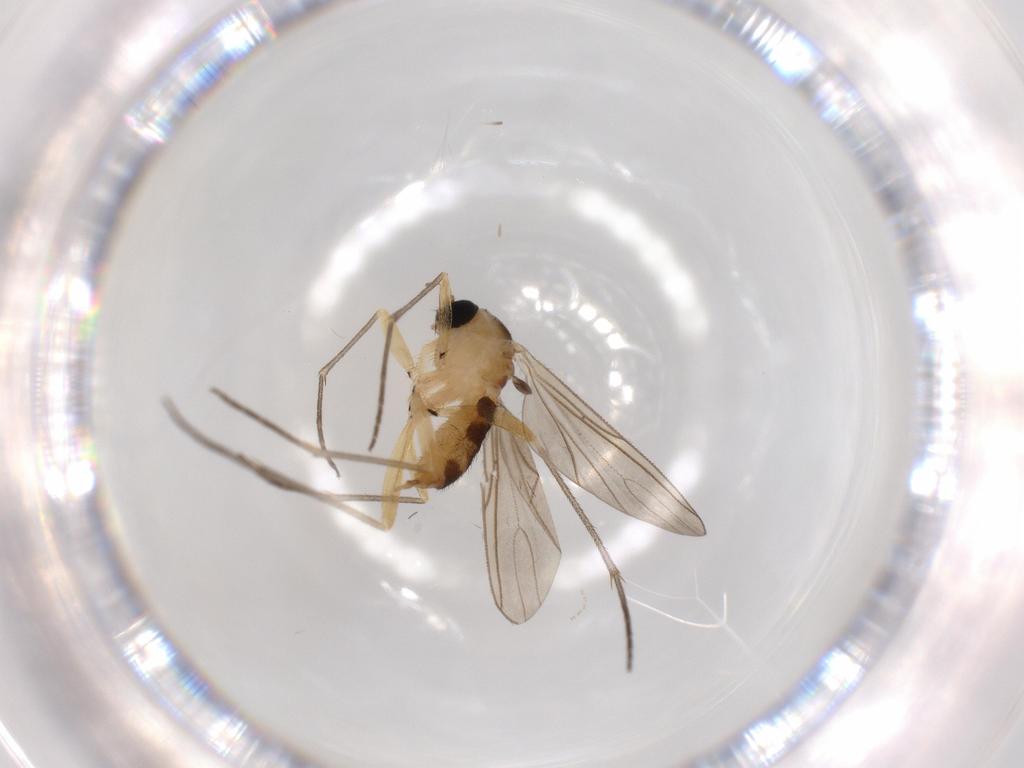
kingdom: Animalia
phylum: Arthropoda
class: Insecta
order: Diptera
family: Sciaridae
